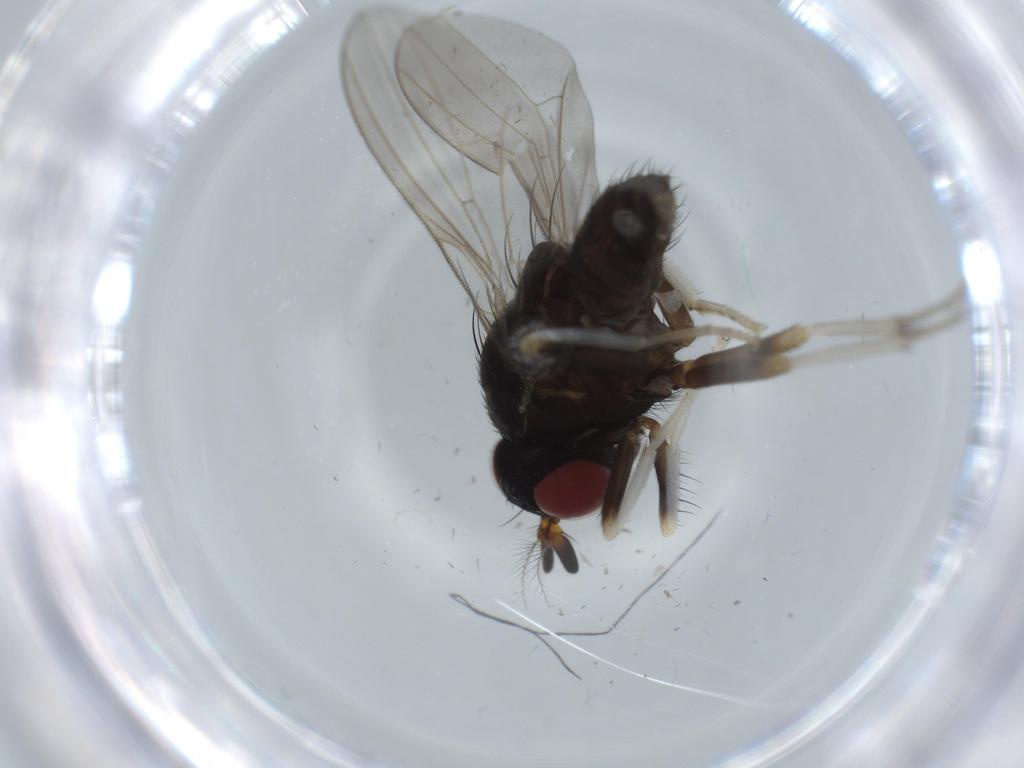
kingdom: Animalia
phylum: Arthropoda
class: Insecta
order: Diptera
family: Lauxaniidae
